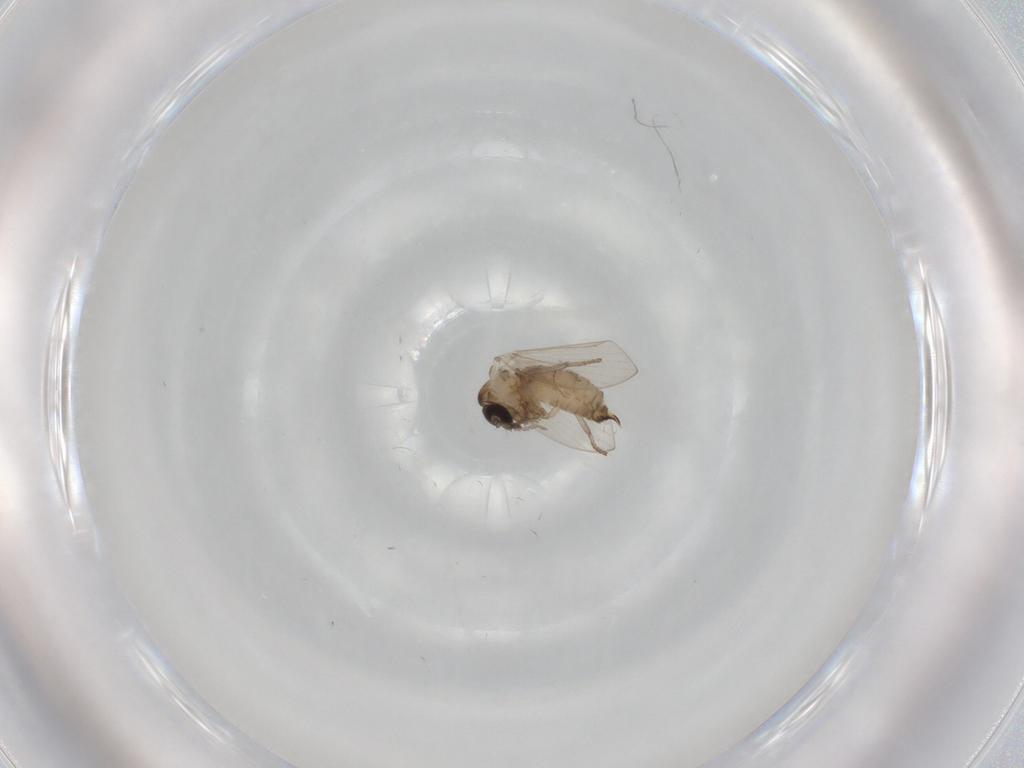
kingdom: Animalia
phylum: Arthropoda
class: Insecta
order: Diptera
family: Psychodidae
